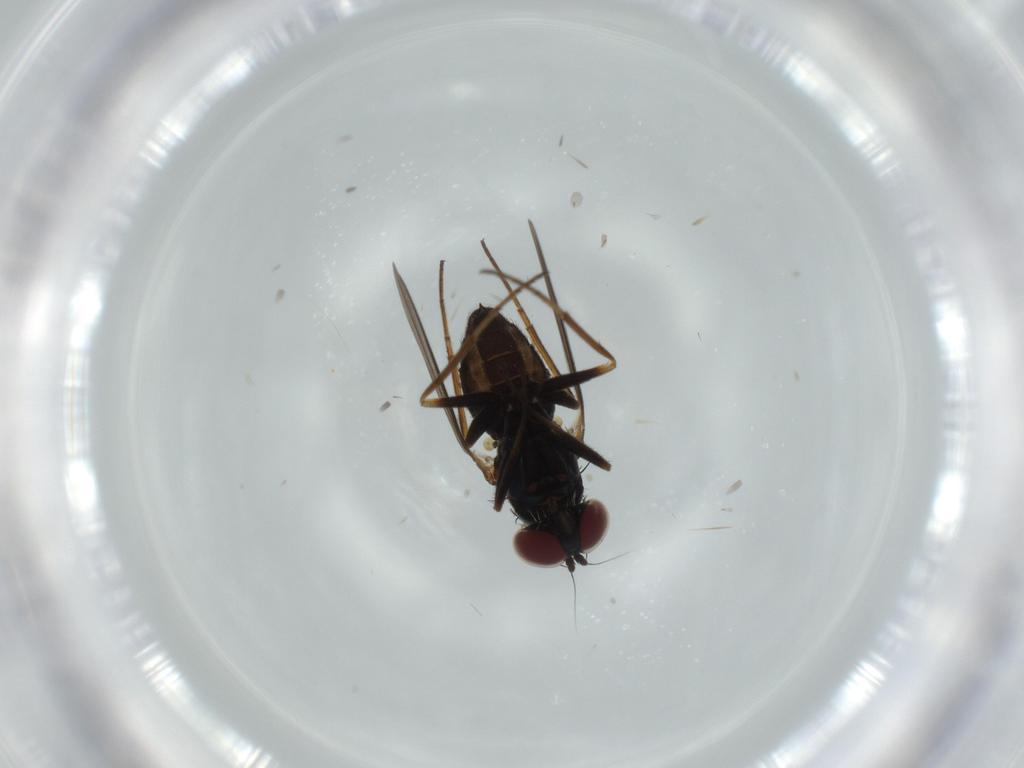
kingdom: Animalia
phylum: Arthropoda
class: Insecta
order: Diptera
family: Dolichopodidae
